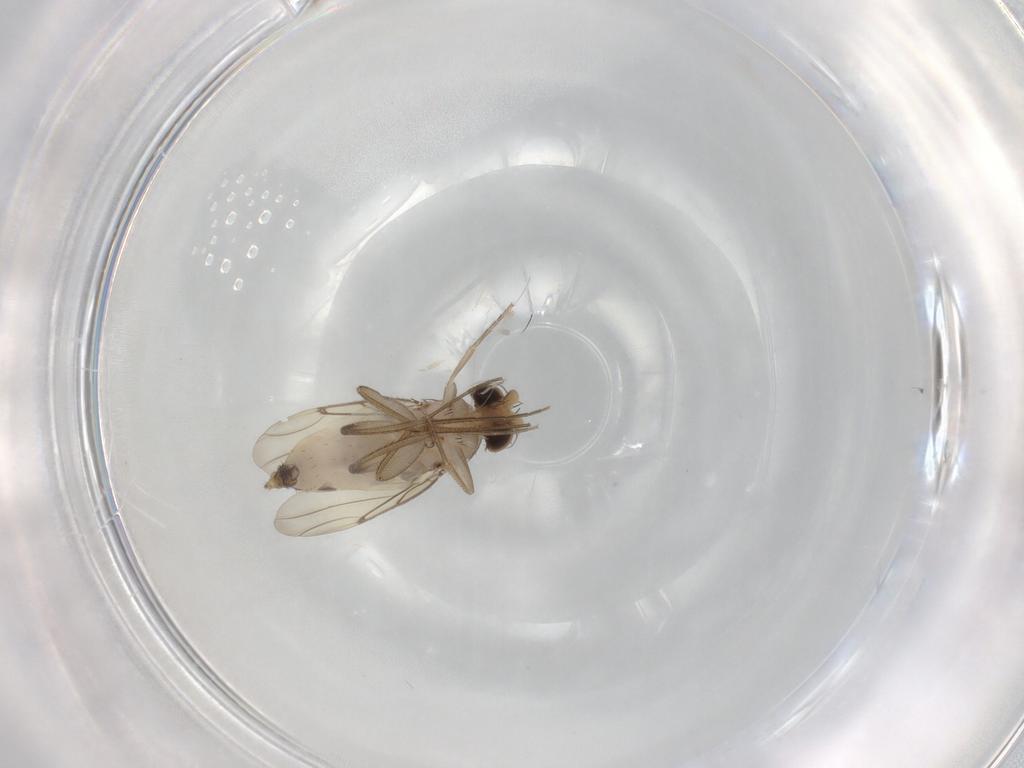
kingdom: Animalia
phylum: Arthropoda
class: Insecta
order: Diptera
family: Phoridae
